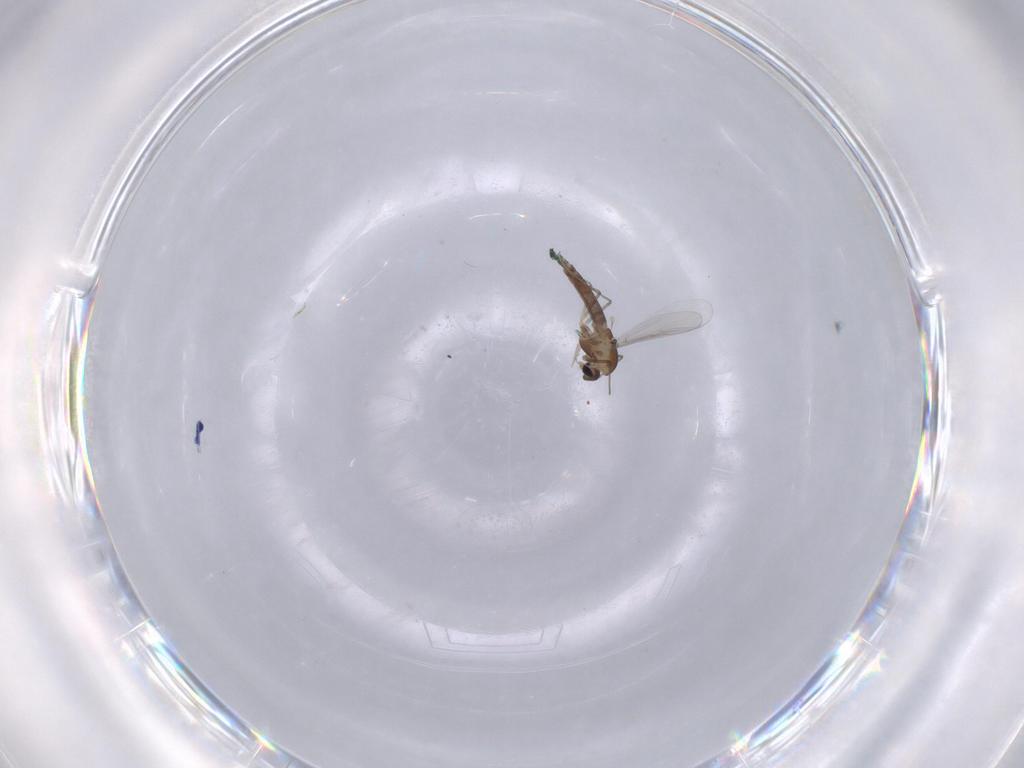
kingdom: Animalia
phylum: Arthropoda
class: Insecta
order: Diptera
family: Chironomidae
